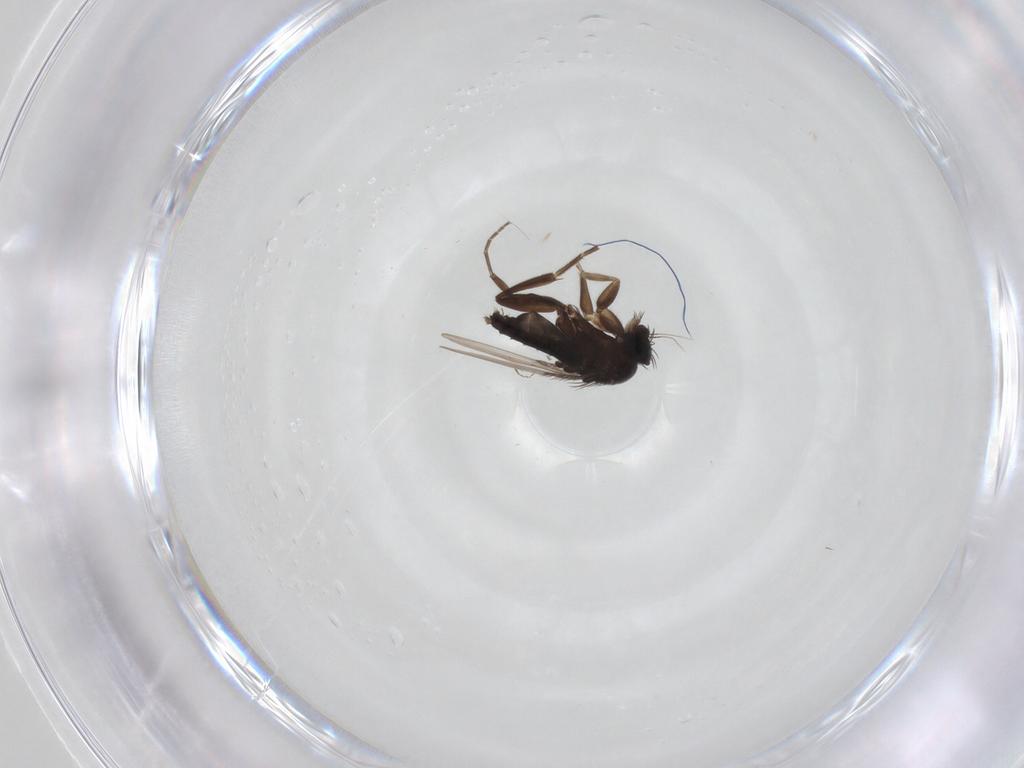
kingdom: Animalia
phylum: Arthropoda
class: Insecta
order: Diptera
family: Phoridae
